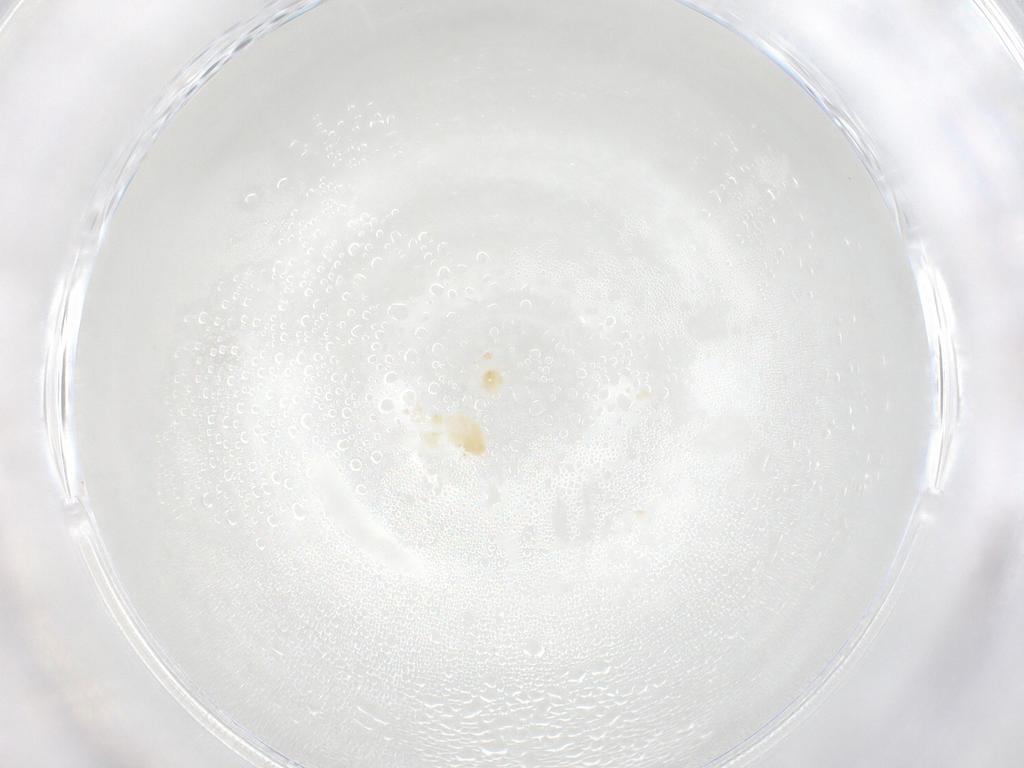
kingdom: Animalia
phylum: Arthropoda
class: Arachnida
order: Trombidiformes
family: Eupodidae
